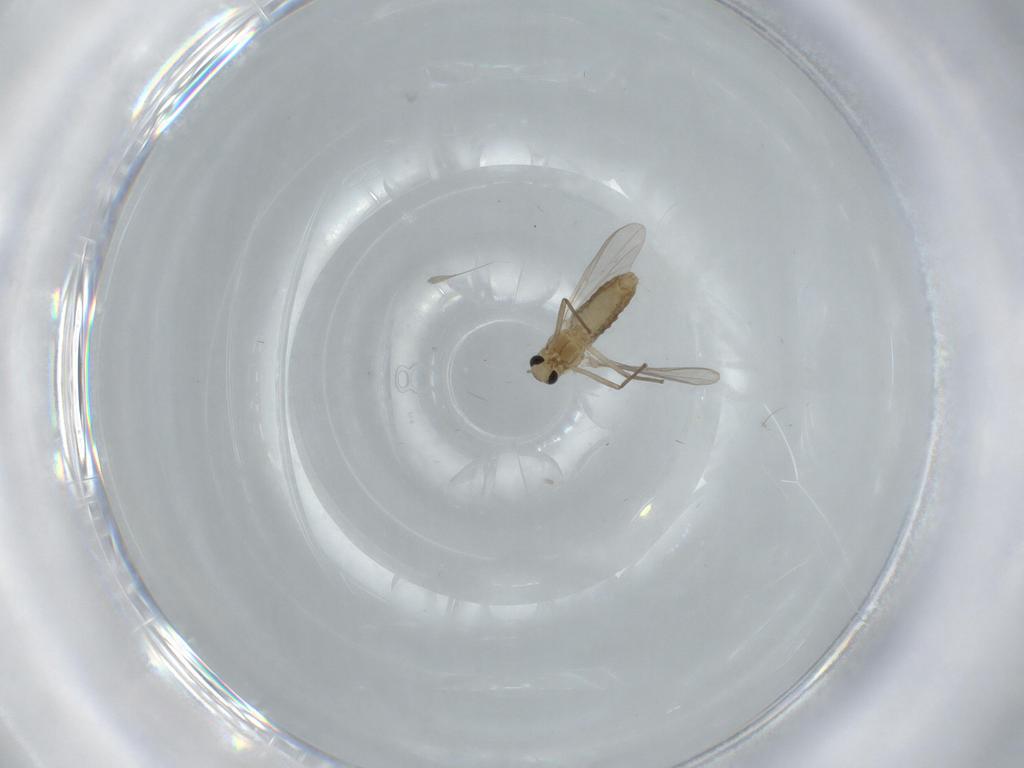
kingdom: Animalia
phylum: Arthropoda
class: Insecta
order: Diptera
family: Chironomidae
